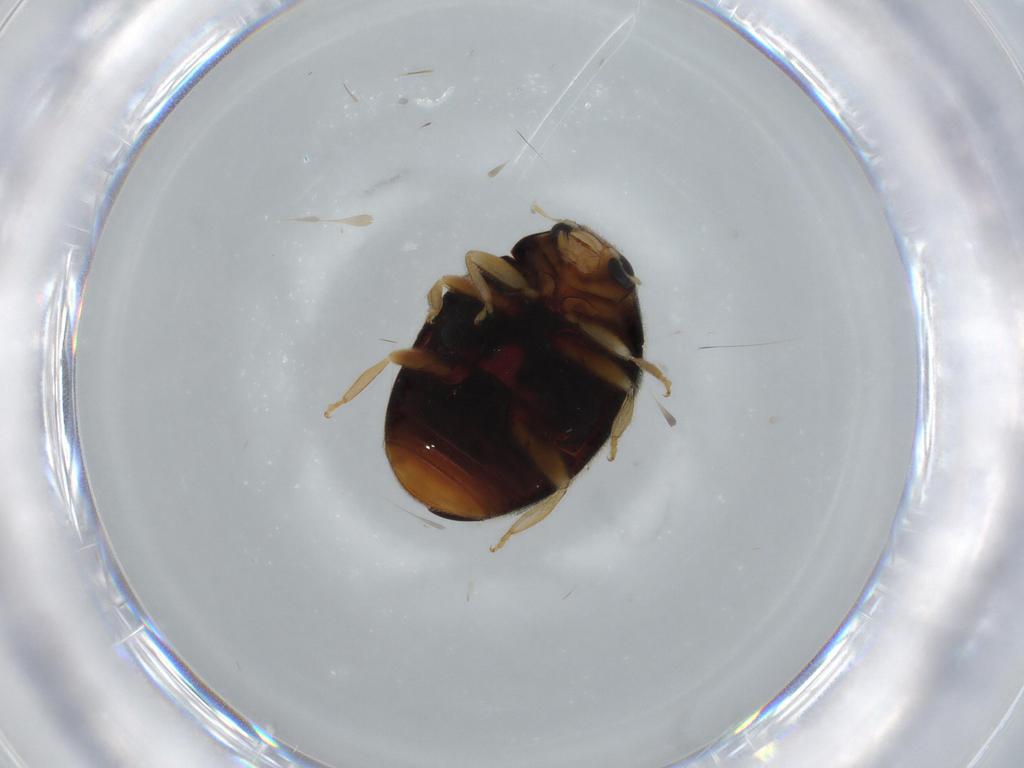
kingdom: Animalia
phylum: Arthropoda
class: Insecta
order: Coleoptera
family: Coccinellidae
